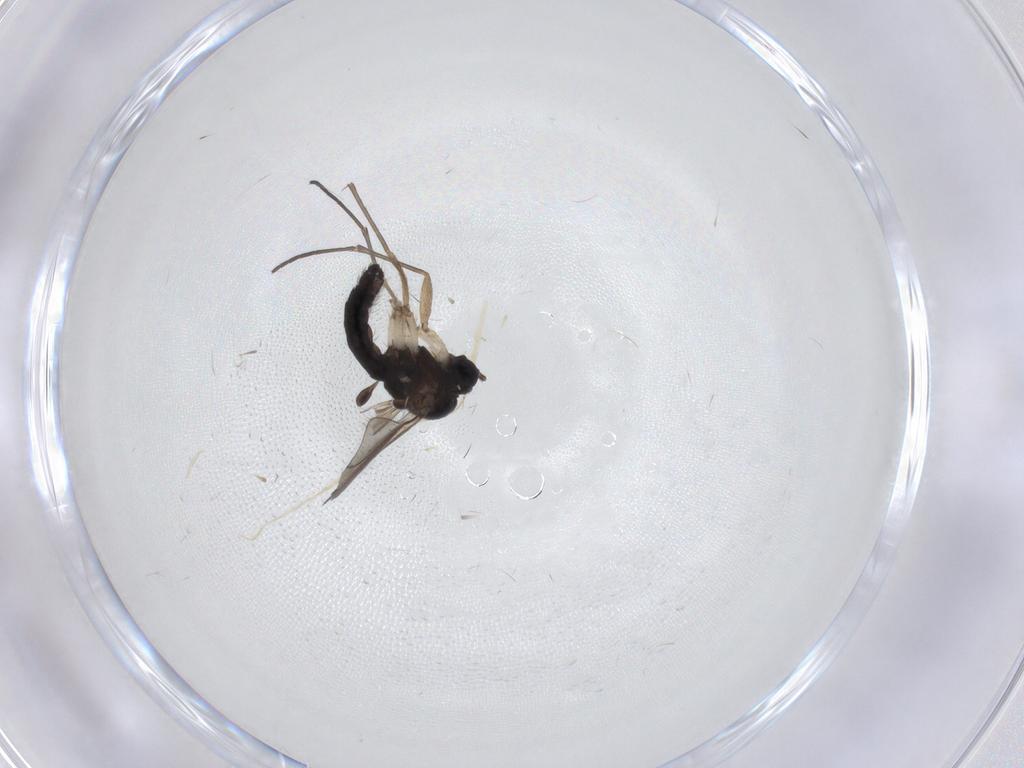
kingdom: Animalia
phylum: Arthropoda
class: Insecta
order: Diptera
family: Sciaridae
